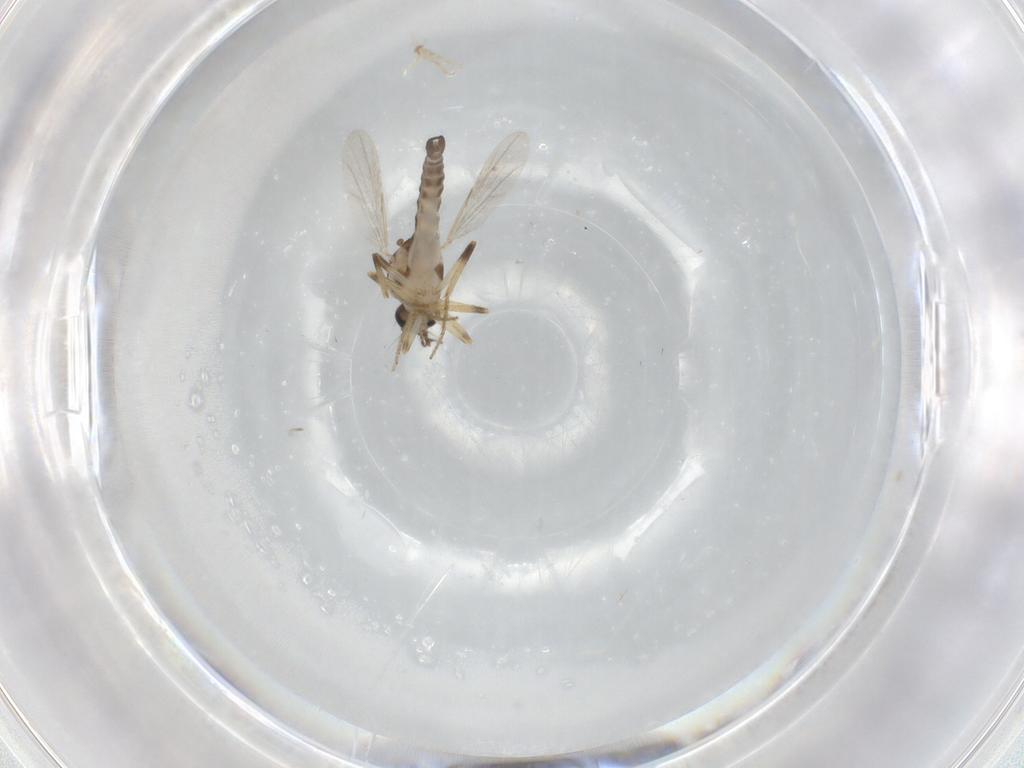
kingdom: Animalia
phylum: Arthropoda
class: Insecta
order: Diptera
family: Ceratopogonidae
